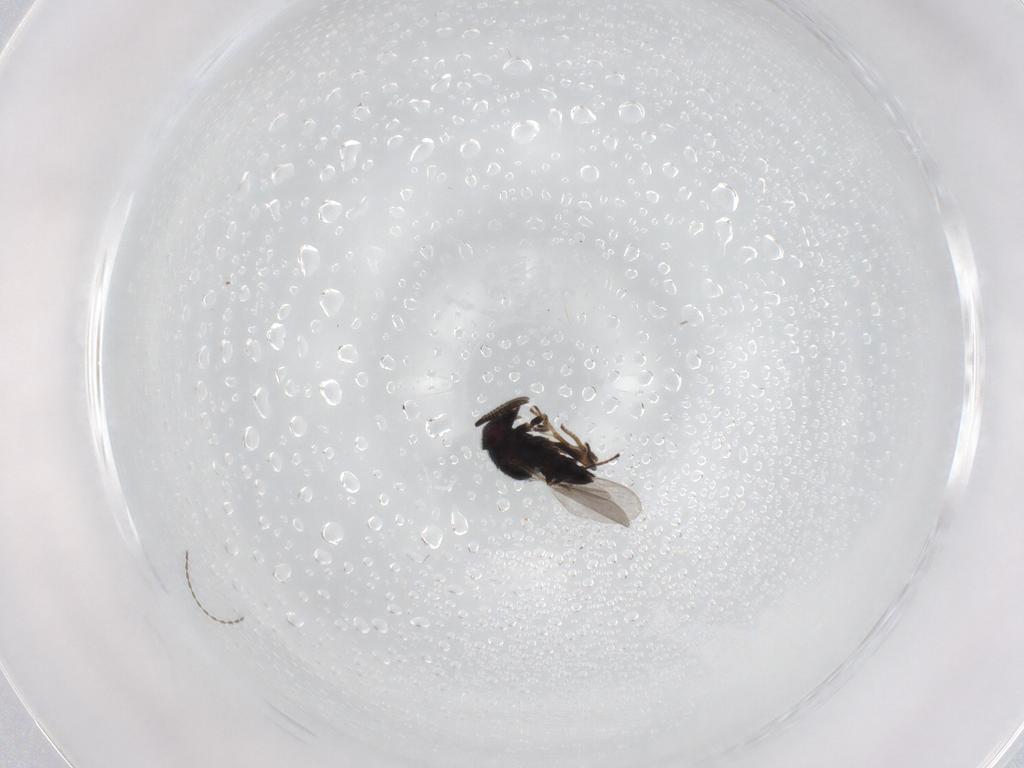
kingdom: Animalia
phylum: Arthropoda
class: Insecta
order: Hymenoptera
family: Encyrtidae
